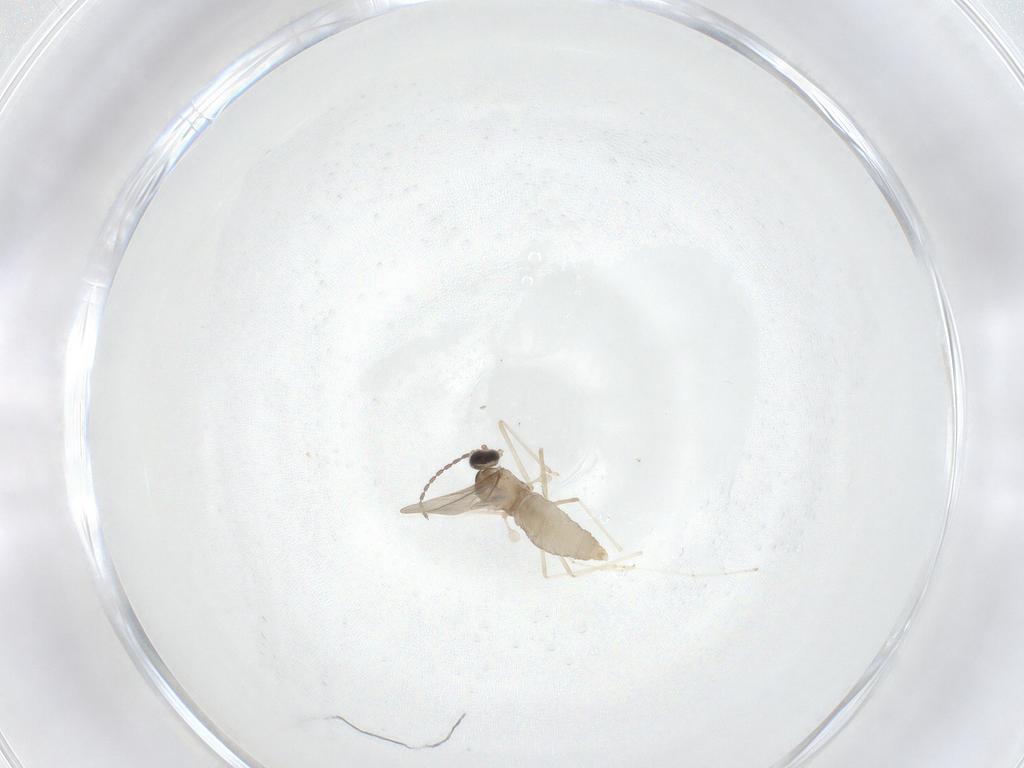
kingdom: Animalia
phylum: Arthropoda
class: Insecta
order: Diptera
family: Cecidomyiidae
